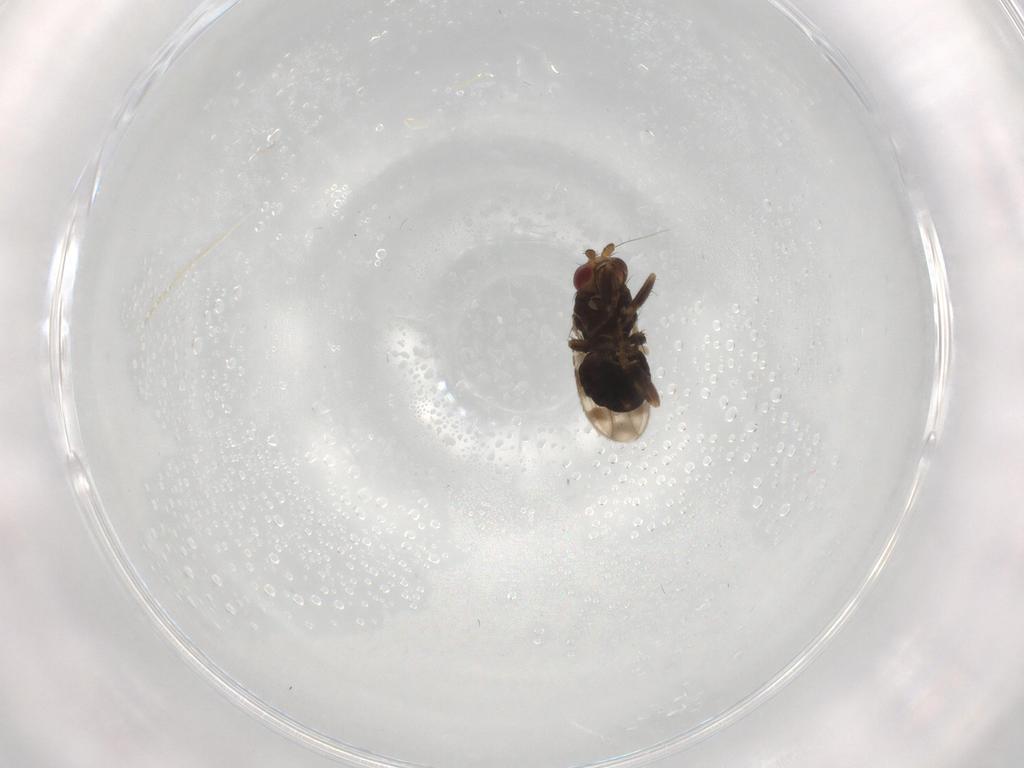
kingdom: Animalia
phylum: Arthropoda
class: Insecta
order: Diptera
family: Sphaeroceridae
